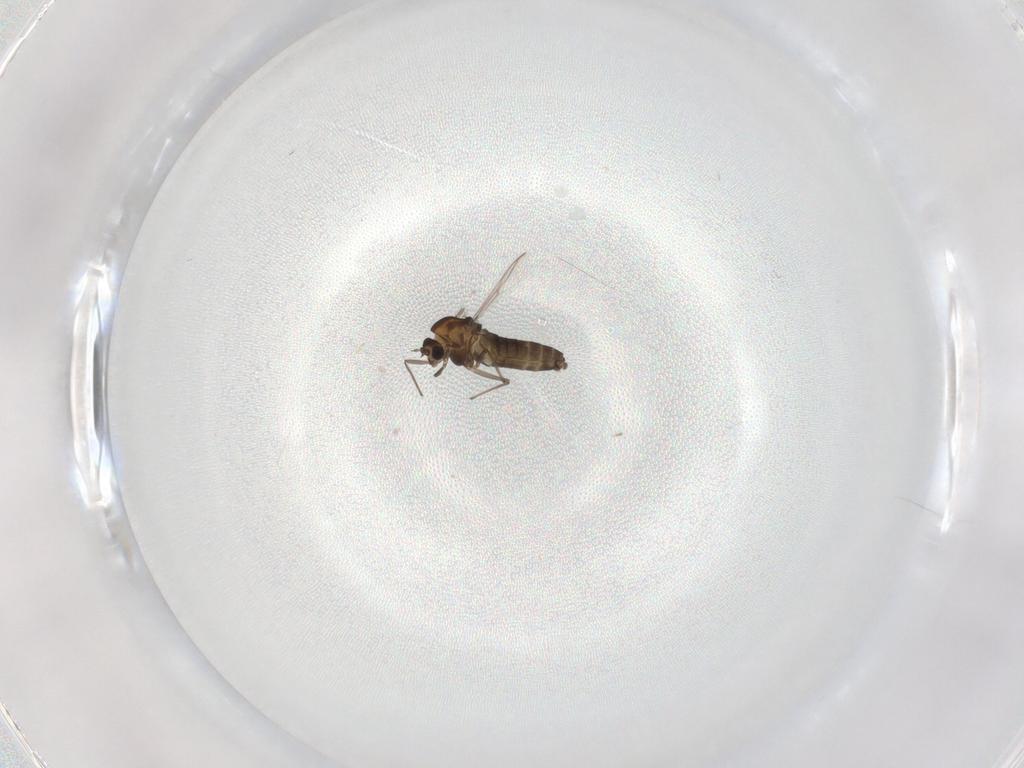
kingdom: Animalia
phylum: Arthropoda
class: Insecta
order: Diptera
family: Chironomidae
